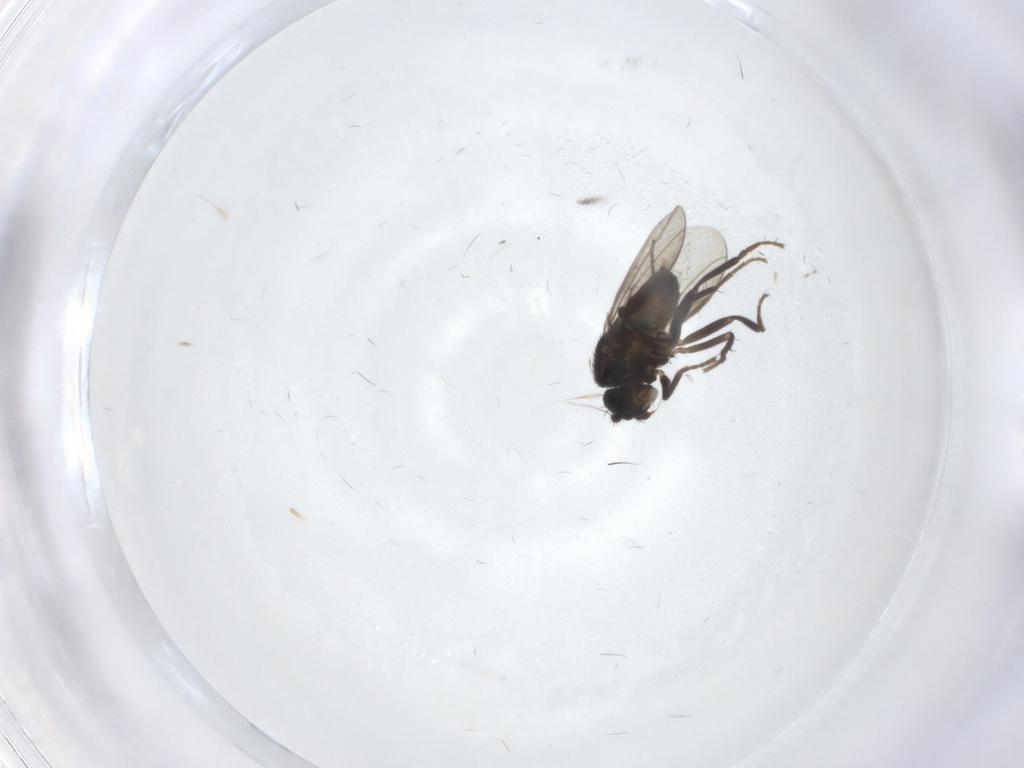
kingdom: Animalia
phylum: Arthropoda
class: Insecta
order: Diptera
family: Sphaeroceridae
